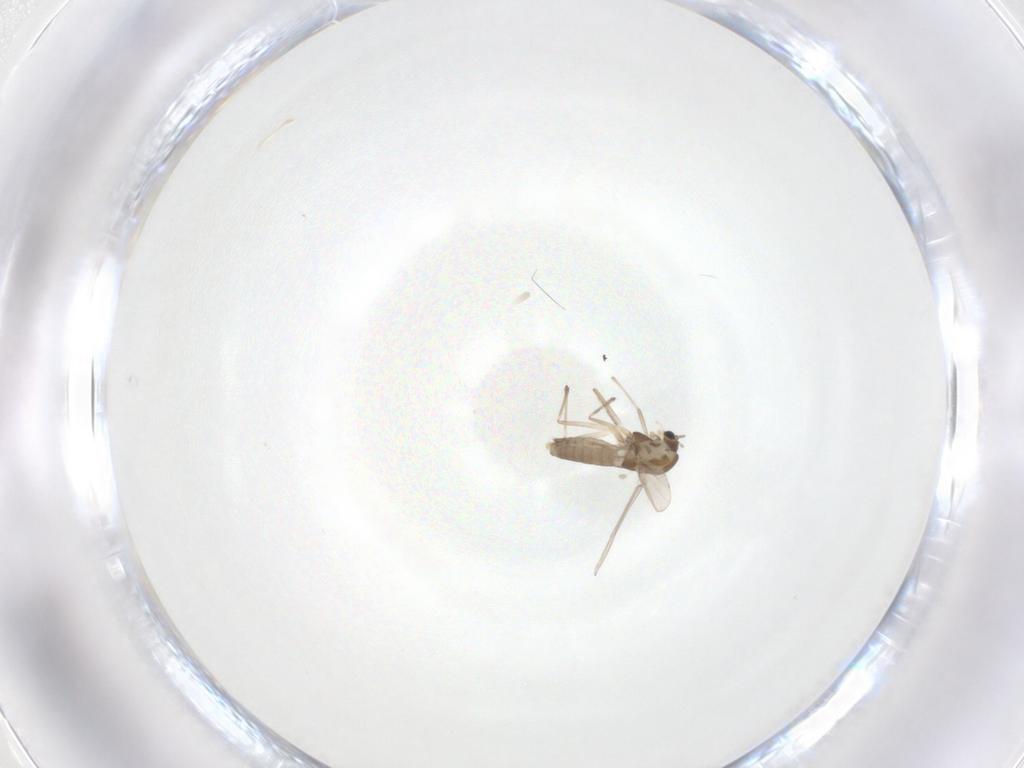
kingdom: Animalia
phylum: Arthropoda
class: Insecta
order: Diptera
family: Chironomidae
